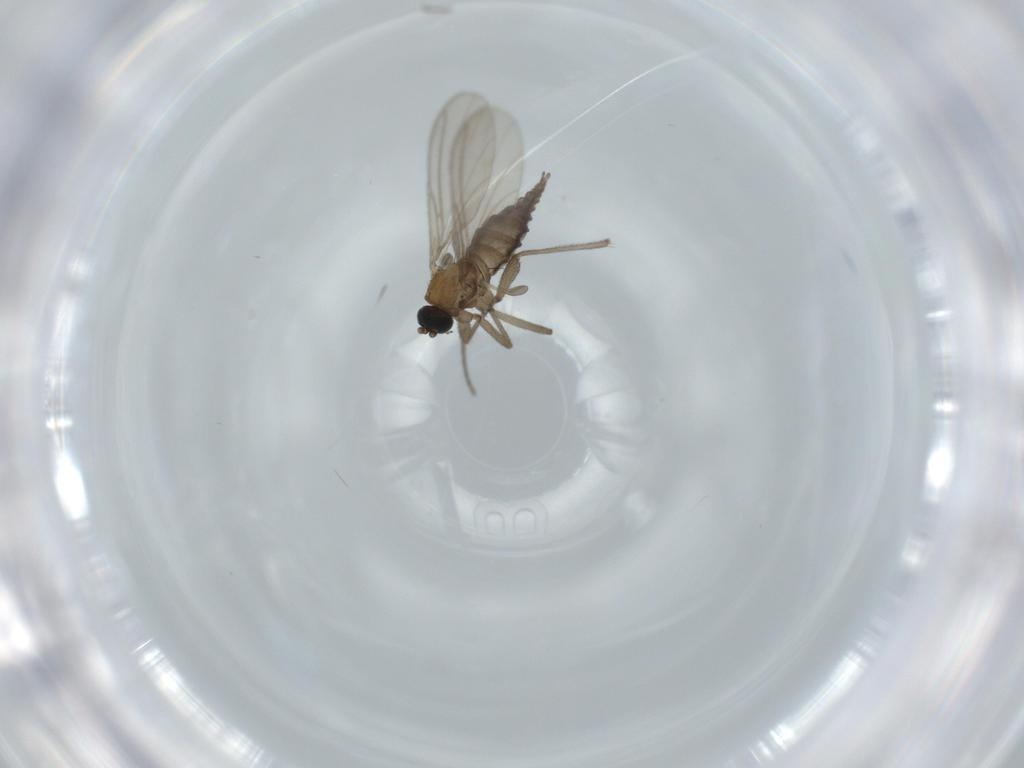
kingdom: Animalia
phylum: Arthropoda
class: Insecta
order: Diptera
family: Sciaridae
